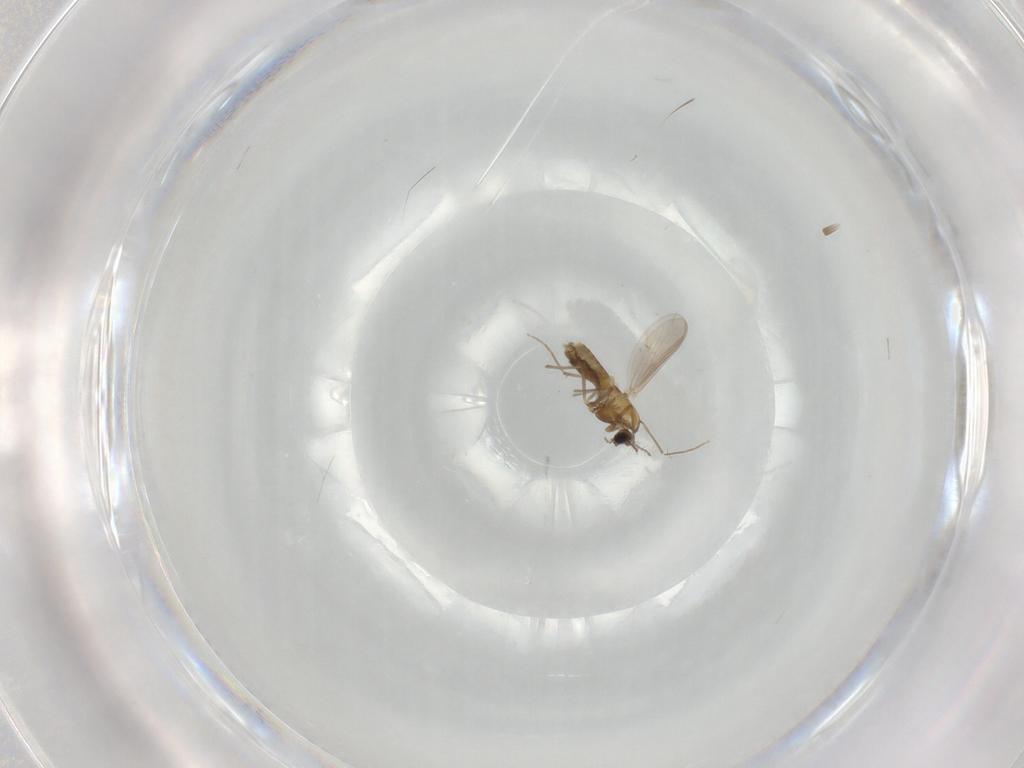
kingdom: Animalia
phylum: Arthropoda
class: Insecta
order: Diptera
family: Chironomidae
